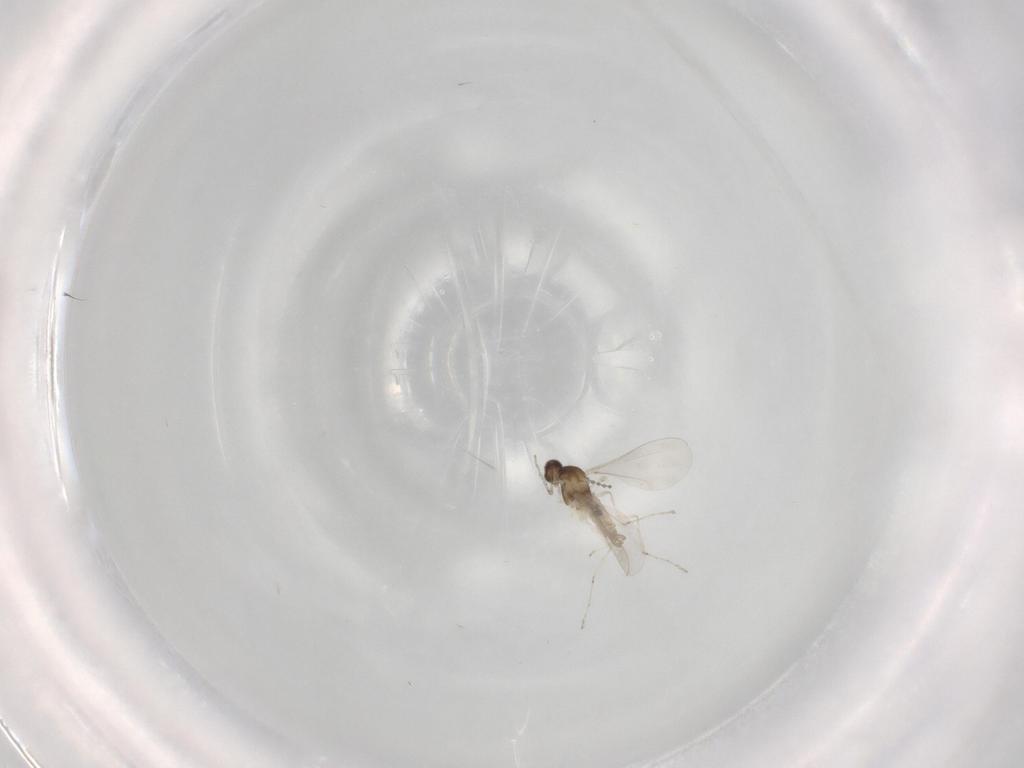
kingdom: Animalia
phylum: Arthropoda
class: Insecta
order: Diptera
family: Cecidomyiidae
